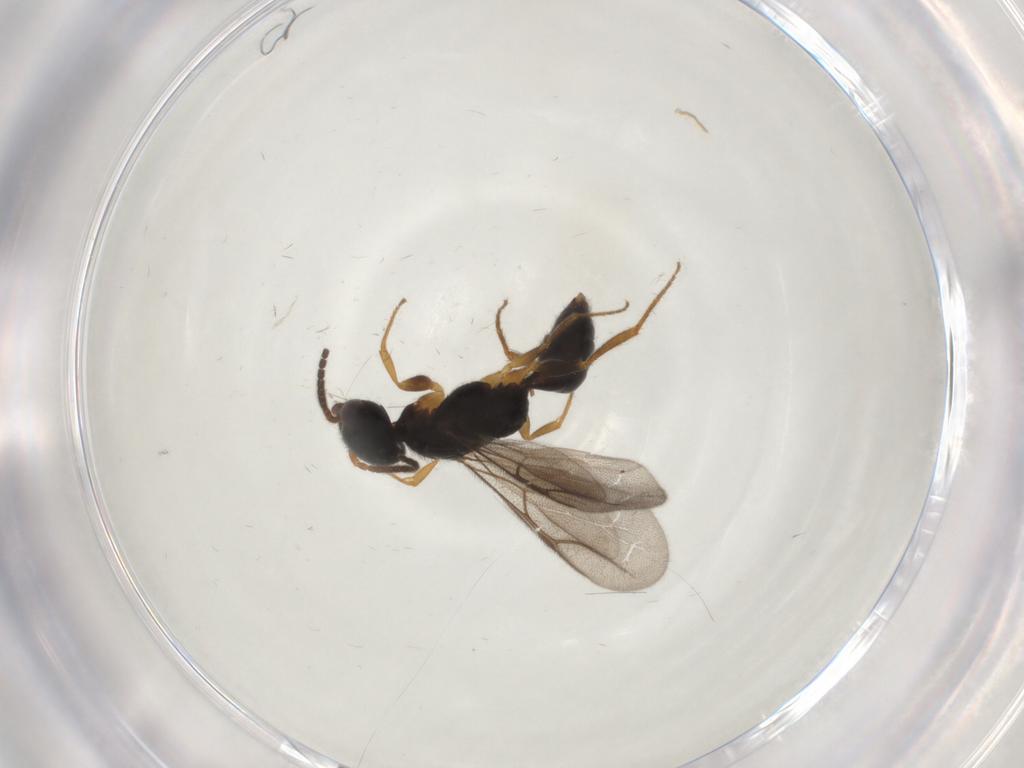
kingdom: Animalia
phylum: Arthropoda
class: Insecta
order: Hymenoptera
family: Bethylidae
